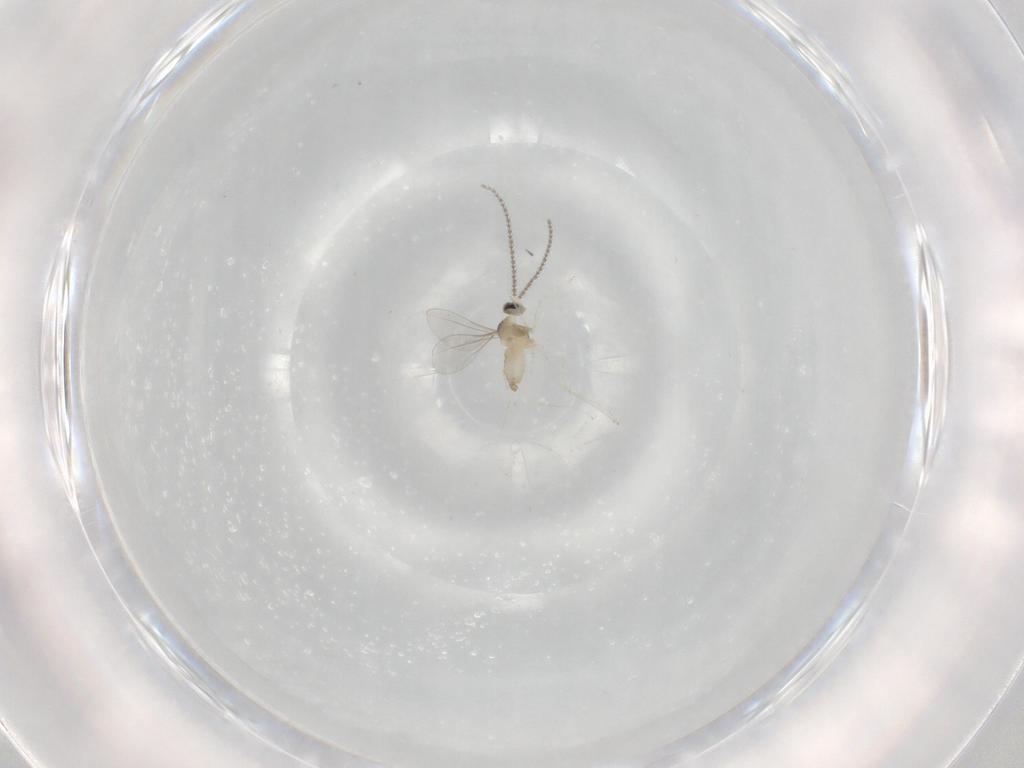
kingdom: Animalia
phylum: Arthropoda
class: Insecta
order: Diptera
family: Cecidomyiidae
